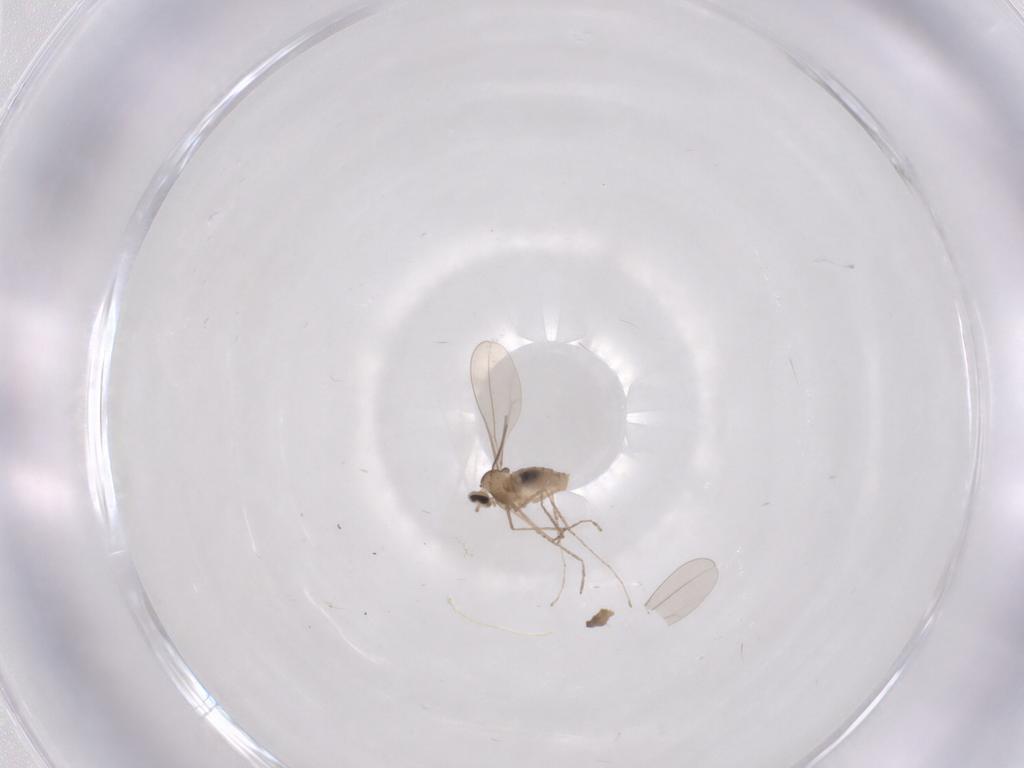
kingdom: Animalia
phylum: Arthropoda
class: Insecta
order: Diptera
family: Cecidomyiidae
